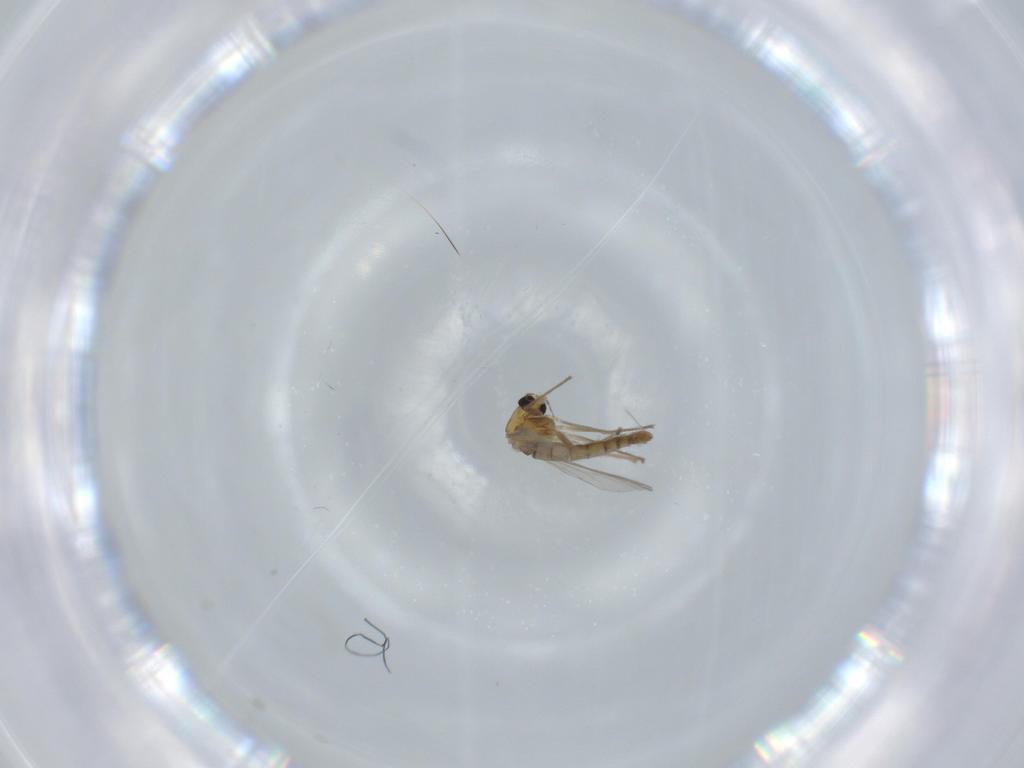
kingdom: Animalia
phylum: Arthropoda
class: Insecta
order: Diptera
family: Chironomidae
